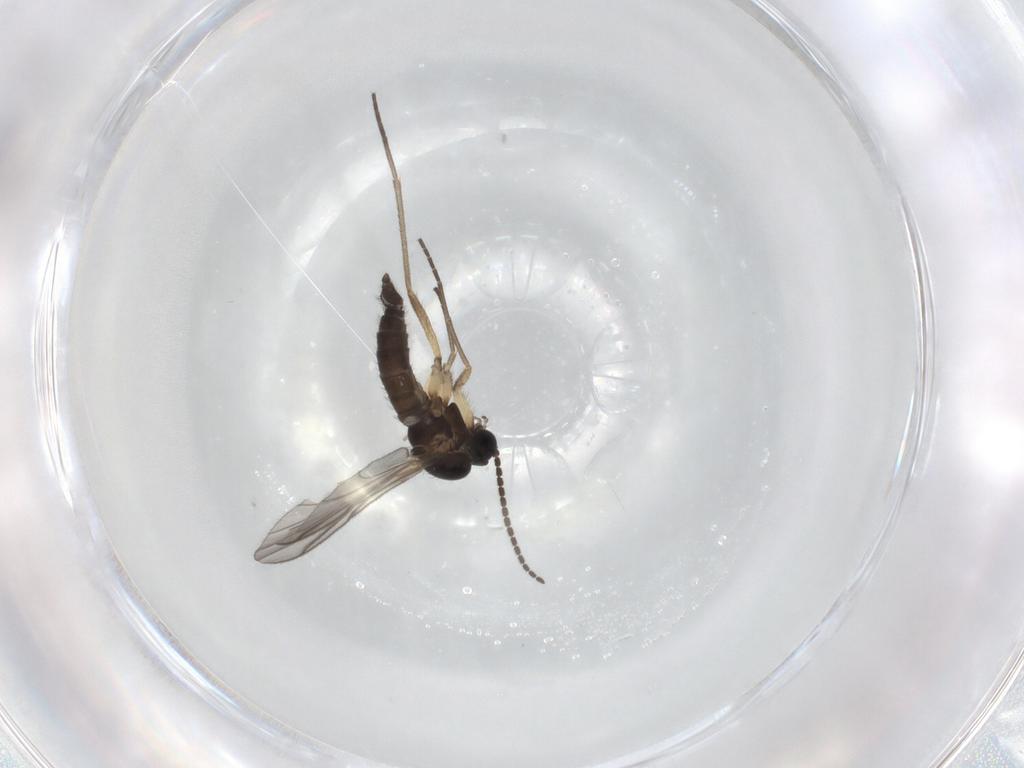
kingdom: Animalia
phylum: Arthropoda
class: Insecta
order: Diptera
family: Sciaridae
